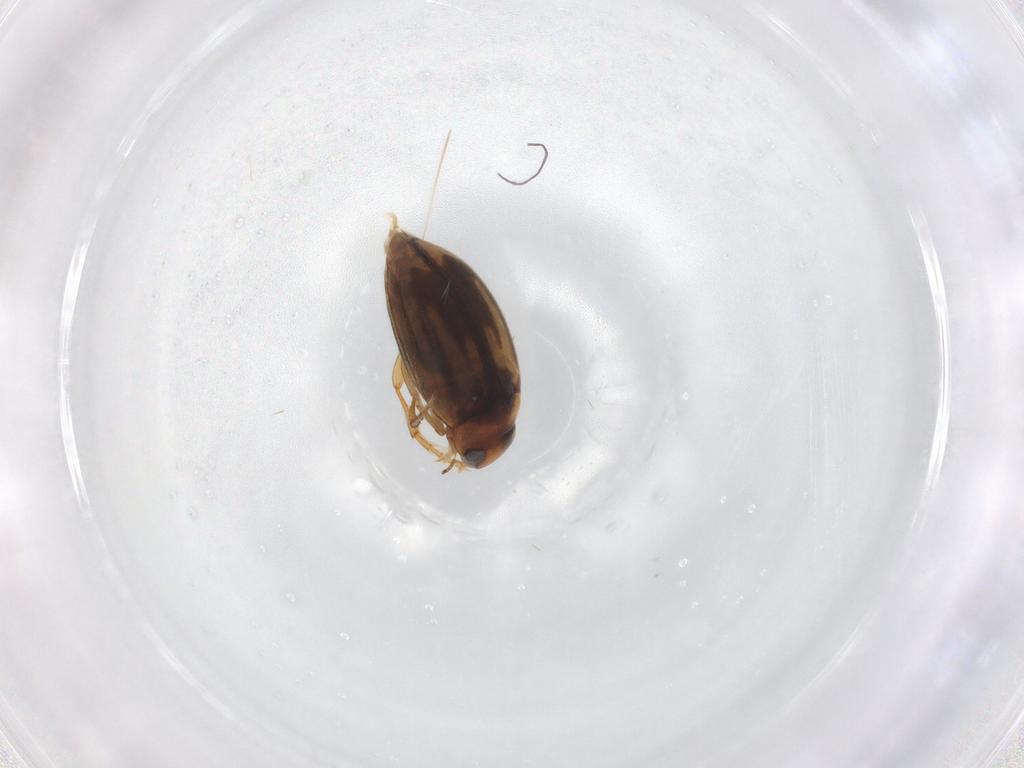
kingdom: Animalia
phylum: Arthropoda
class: Insecta
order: Coleoptera
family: Dytiscidae
